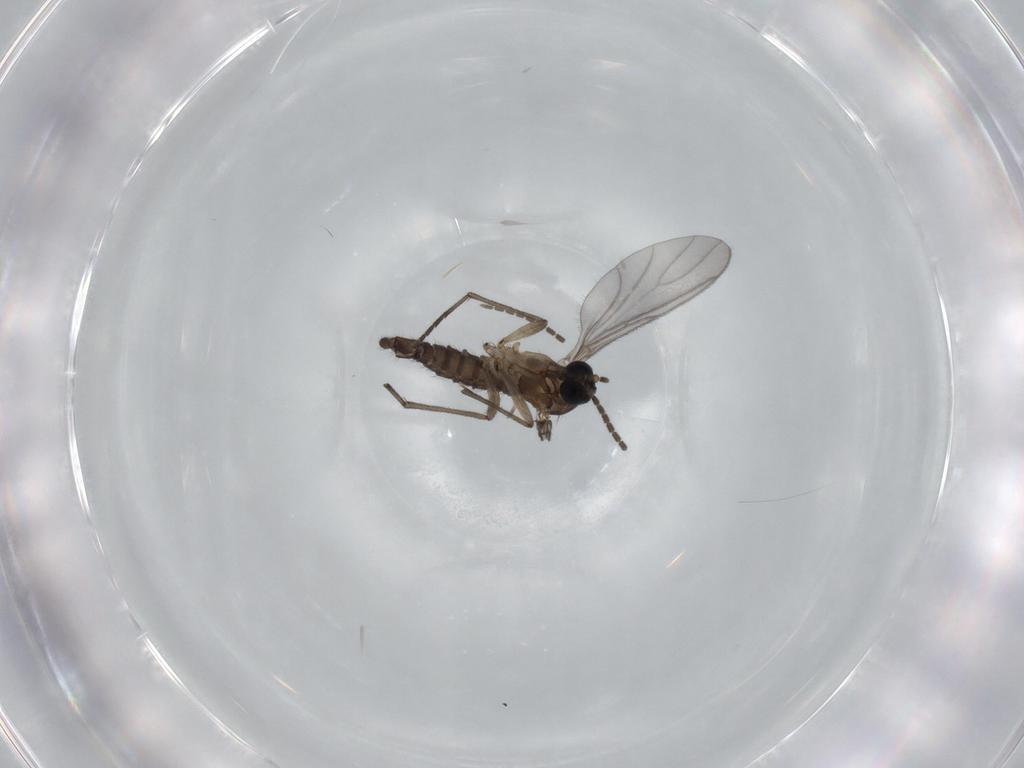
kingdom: Animalia
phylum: Arthropoda
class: Insecta
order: Diptera
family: Sciaridae
